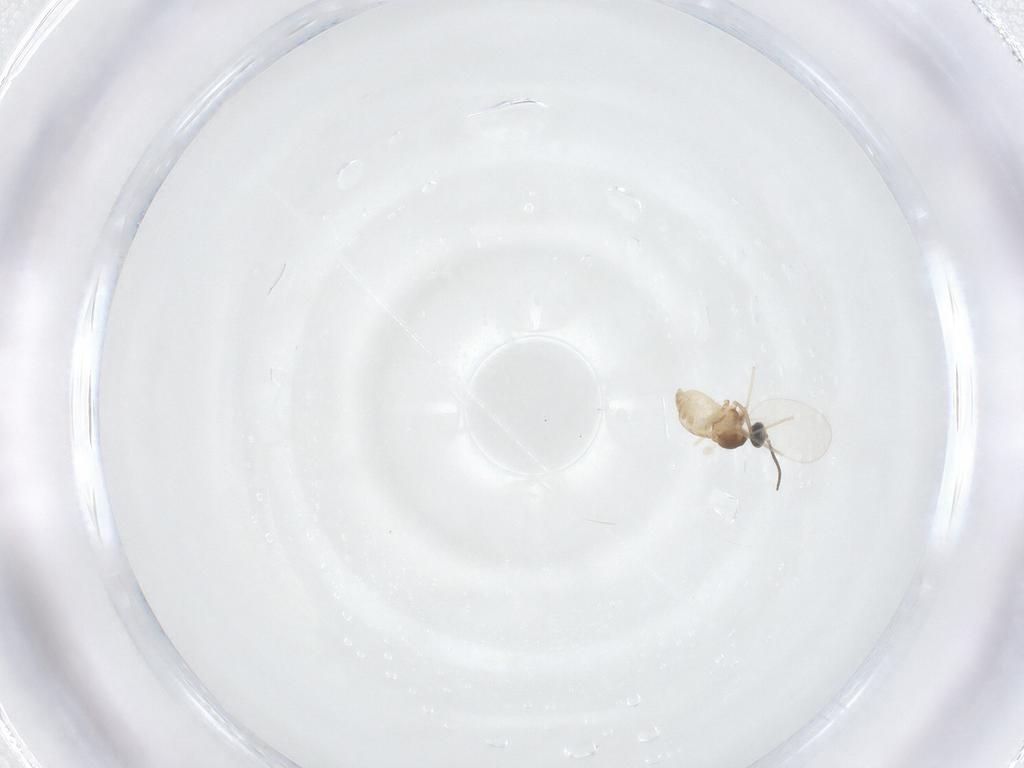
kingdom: Animalia
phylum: Arthropoda
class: Insecta
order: Diptera
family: Cecidomyiidae
